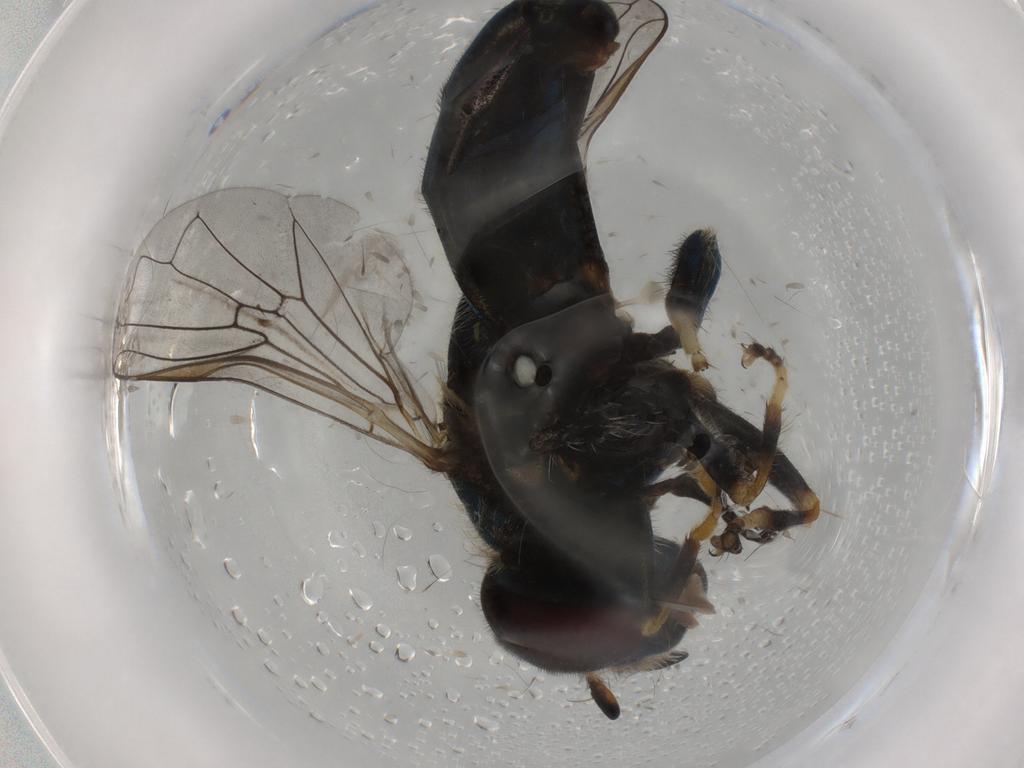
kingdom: Animalia
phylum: Arthropoda
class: Insecta
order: Diptera
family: Syrphidae
